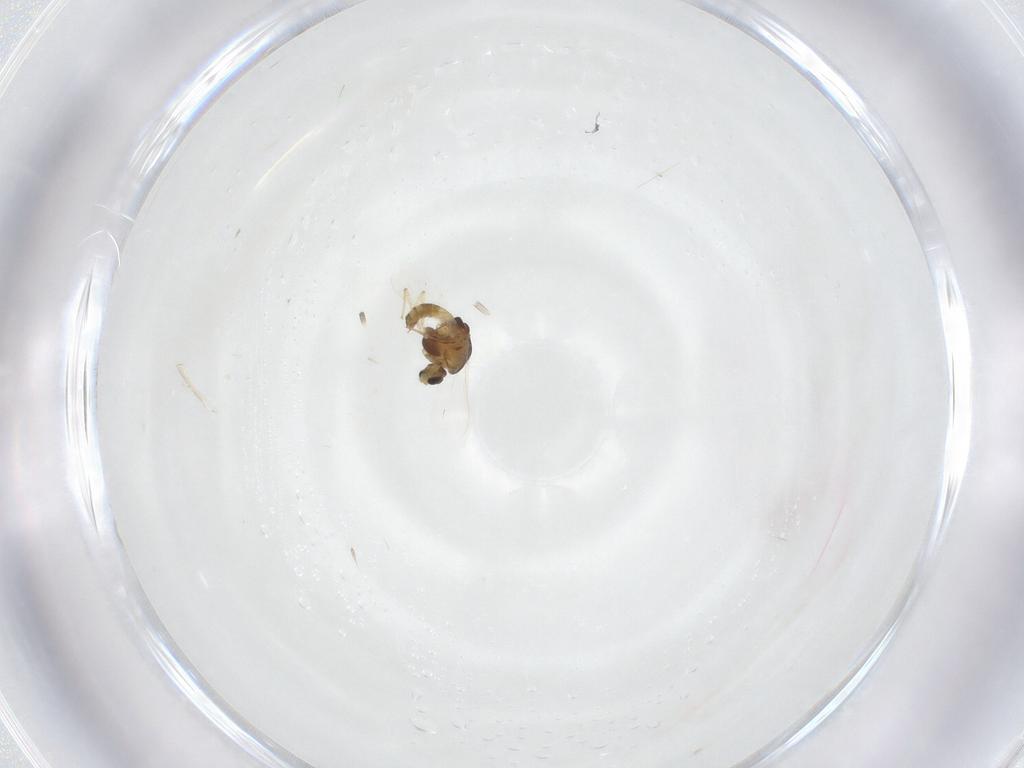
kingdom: Animalia
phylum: Arthropoda
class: Insecta
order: Diptera
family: Chironomidae
